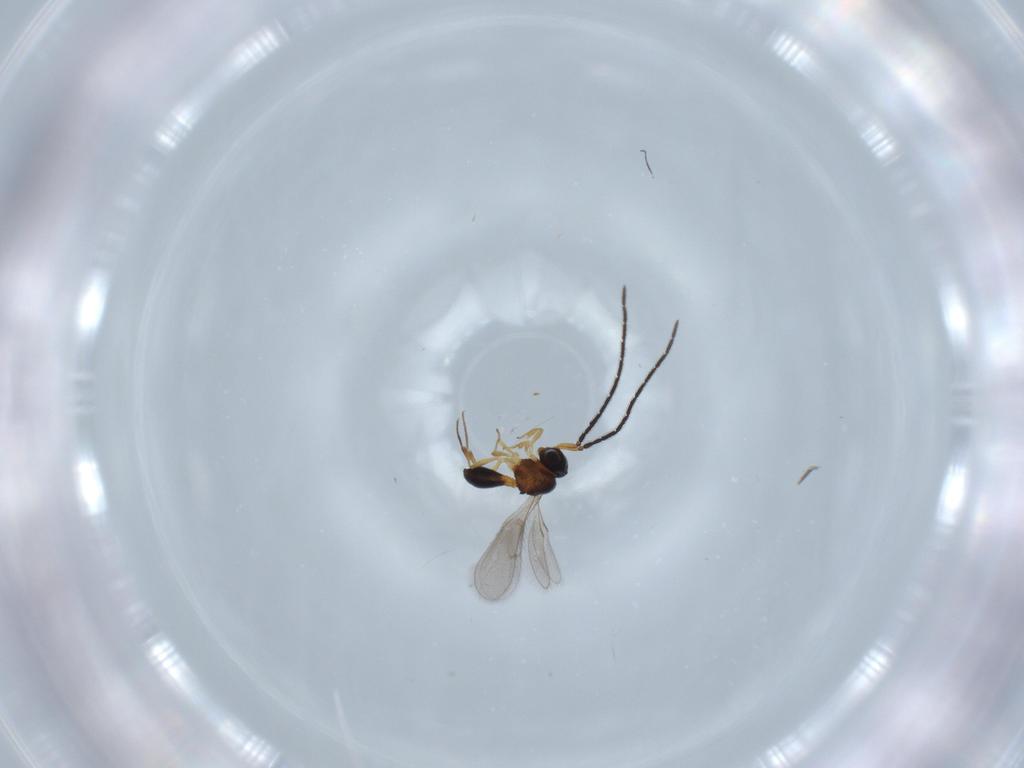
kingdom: Animalia
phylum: Arthropoda
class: Insecta
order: Hymenoptera
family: Scelionidae
